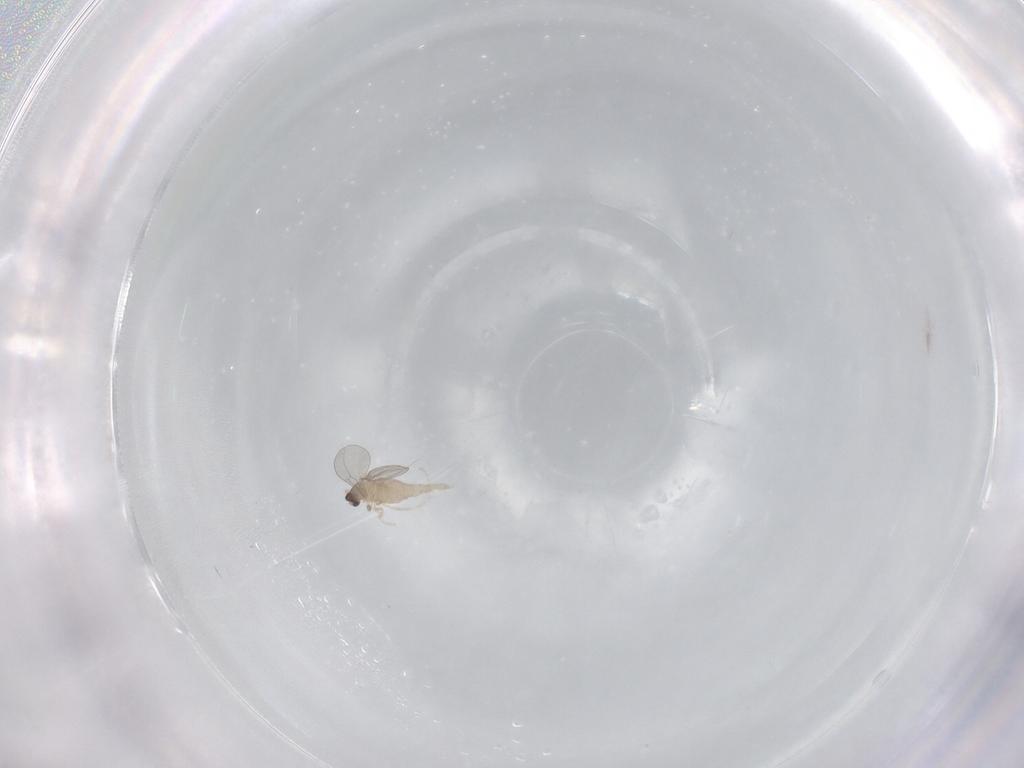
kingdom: Animalia
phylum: Arthropoda
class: Insecta
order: Diptera
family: Cecidomyiidae
